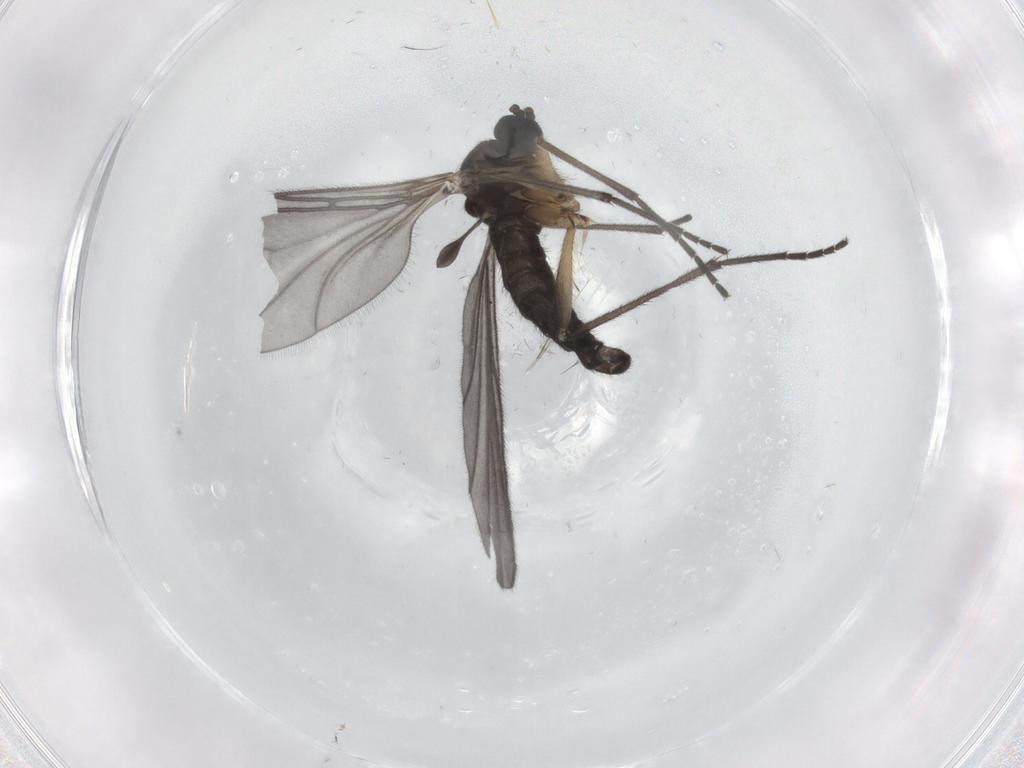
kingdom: Animalia
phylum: Arthropoda
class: Insecta
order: Diptera
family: Sciaridae
